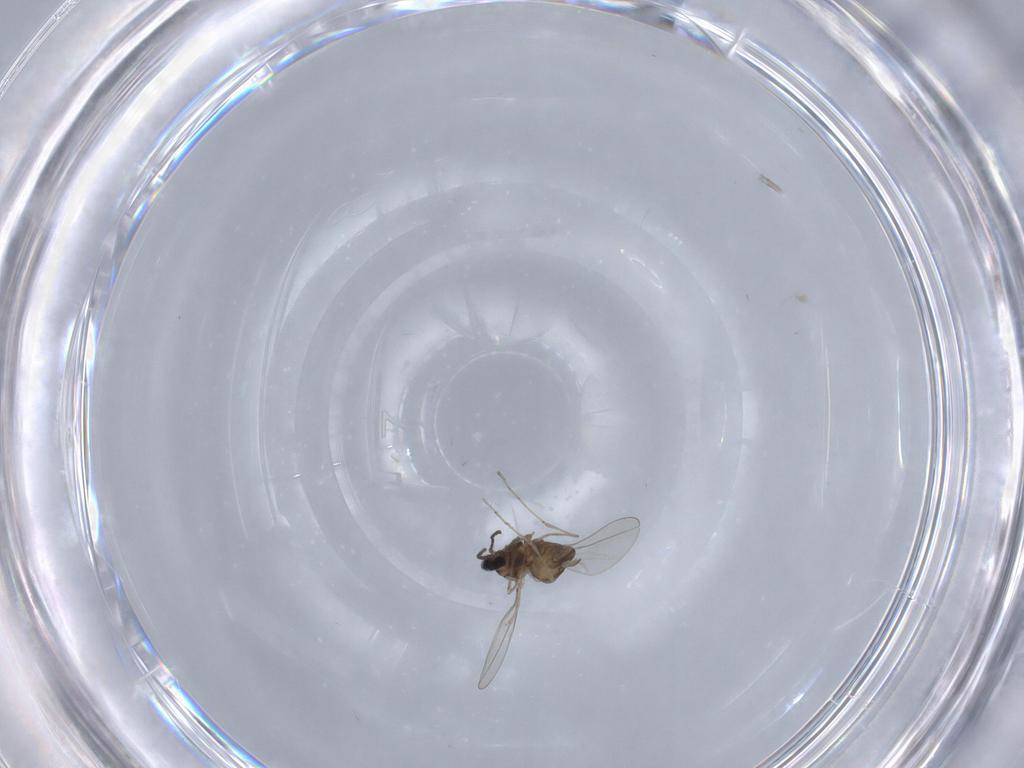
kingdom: Animalia
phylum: Arthropoda
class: Insecta
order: Diptera
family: Cecidomyiidae
